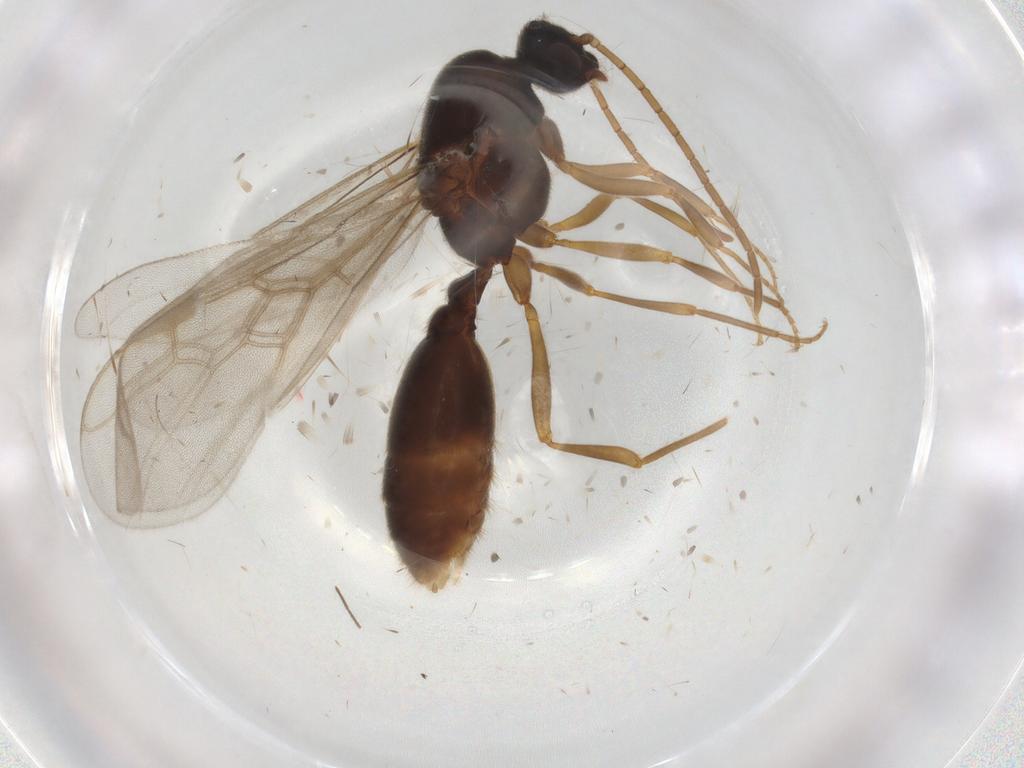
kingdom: Animalia
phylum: Arthropoda
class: Insecta
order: Hymenoptera
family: Formicidae
